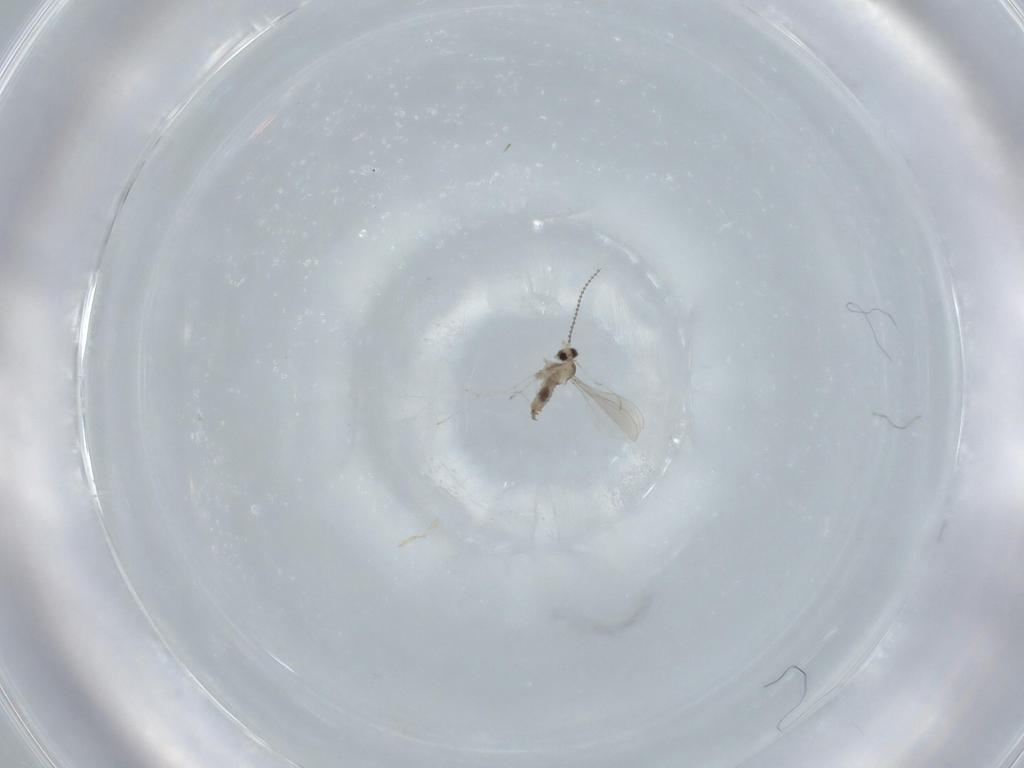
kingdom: Animalia
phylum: Arthropoda
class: Insecta
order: Diptera
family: Cecidomyiidae
